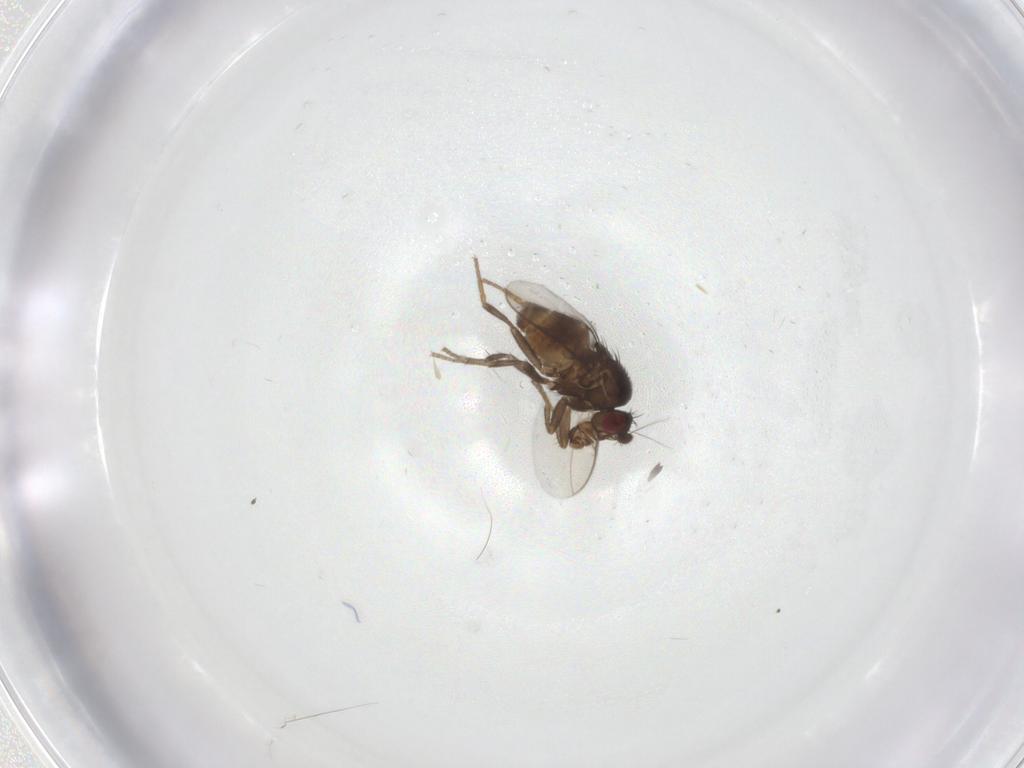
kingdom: Animalia
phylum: Arthropoda
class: Insecta
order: Diptera
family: Sphaeroceridae
